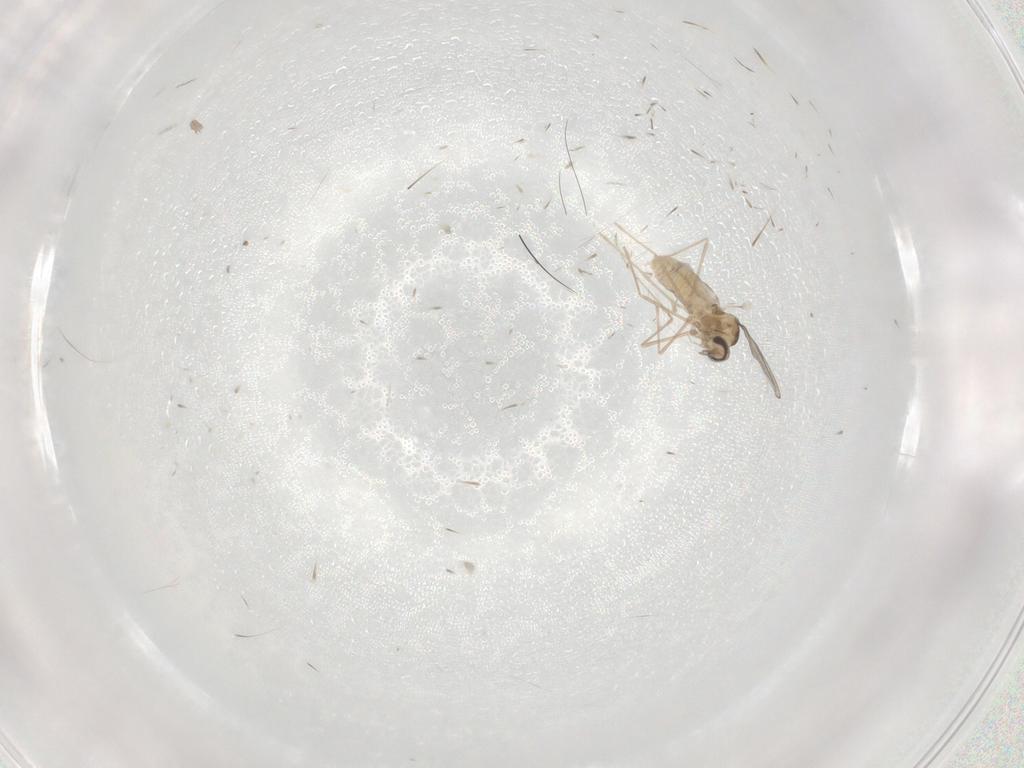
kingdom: Animalia
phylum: Arthropoda
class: Insecta
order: Diptera
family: Cecidomyiidae
